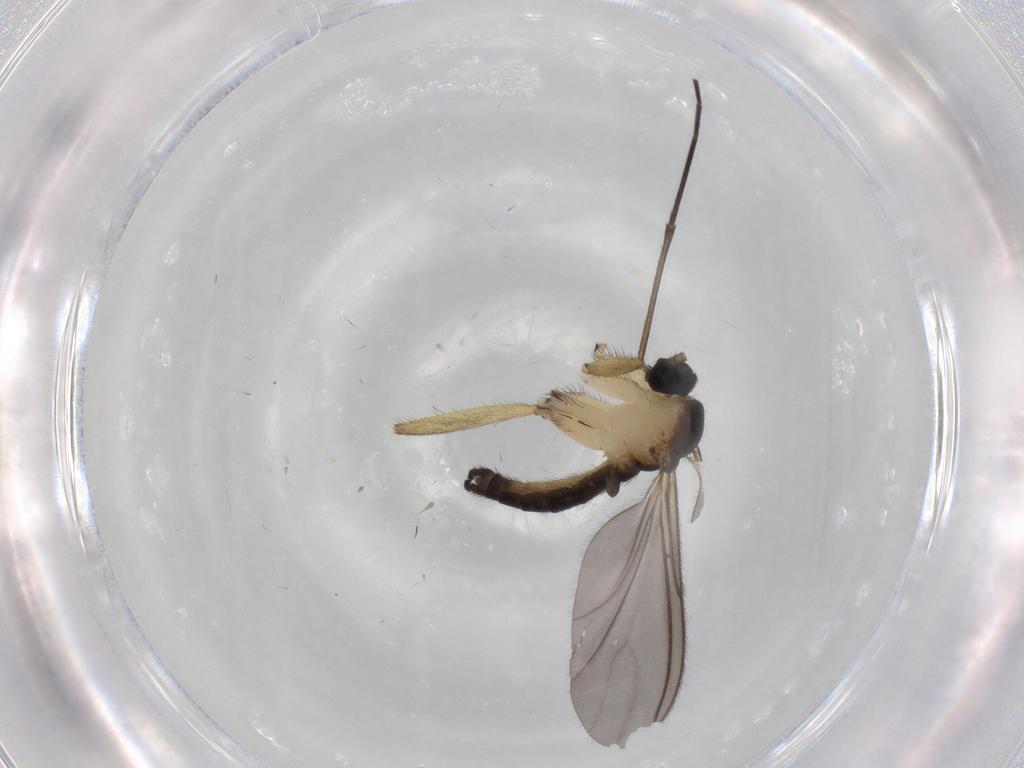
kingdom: Animalia
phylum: Arthropoda
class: Insecta
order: Diptera
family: Sciaridae
